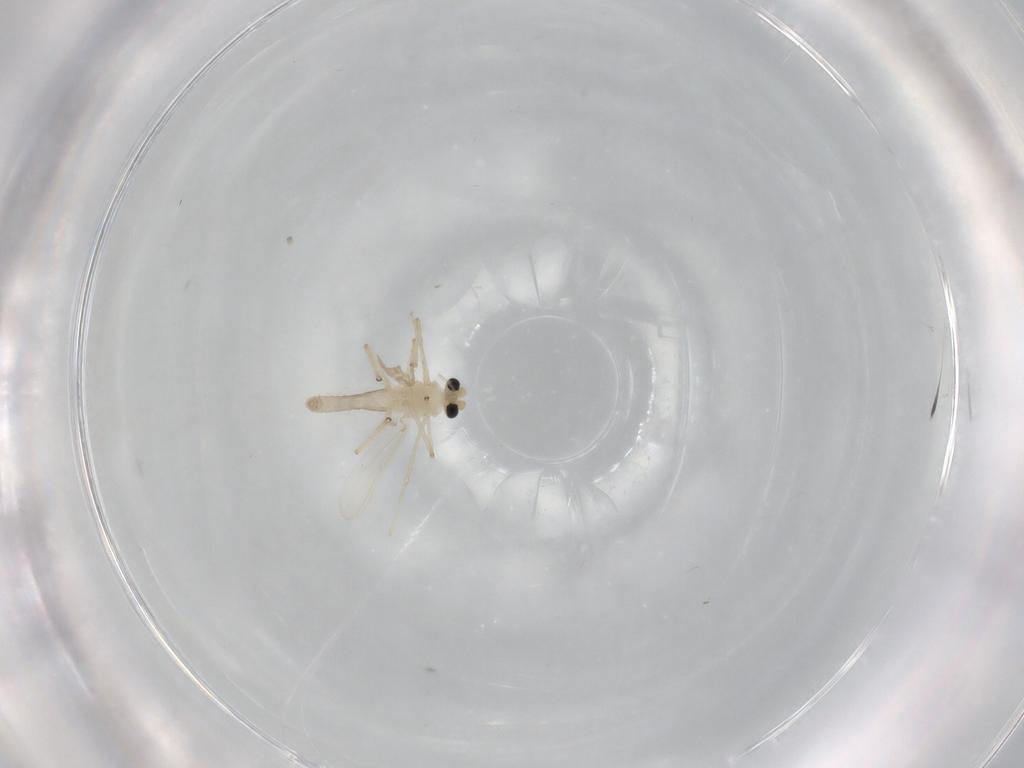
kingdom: Animalia
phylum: Arthropoda
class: Insecta
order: Diptera
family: Chironomidae
